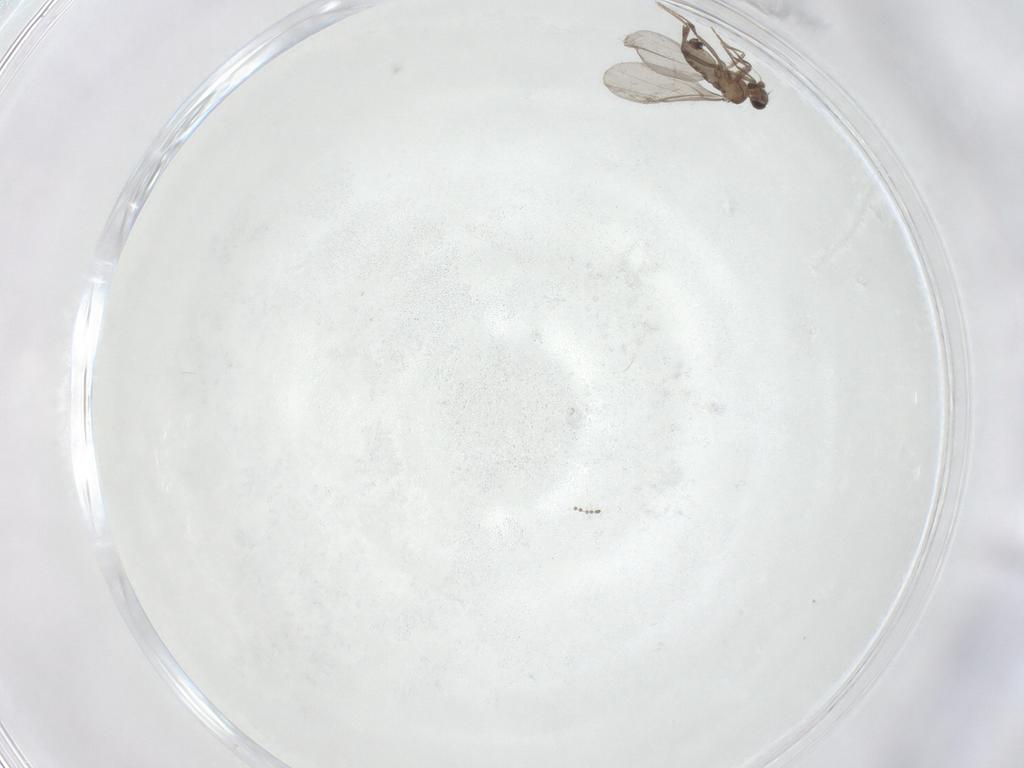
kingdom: Animalia
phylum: Arthropoda
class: Insecta
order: Diptera
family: Phoridae
